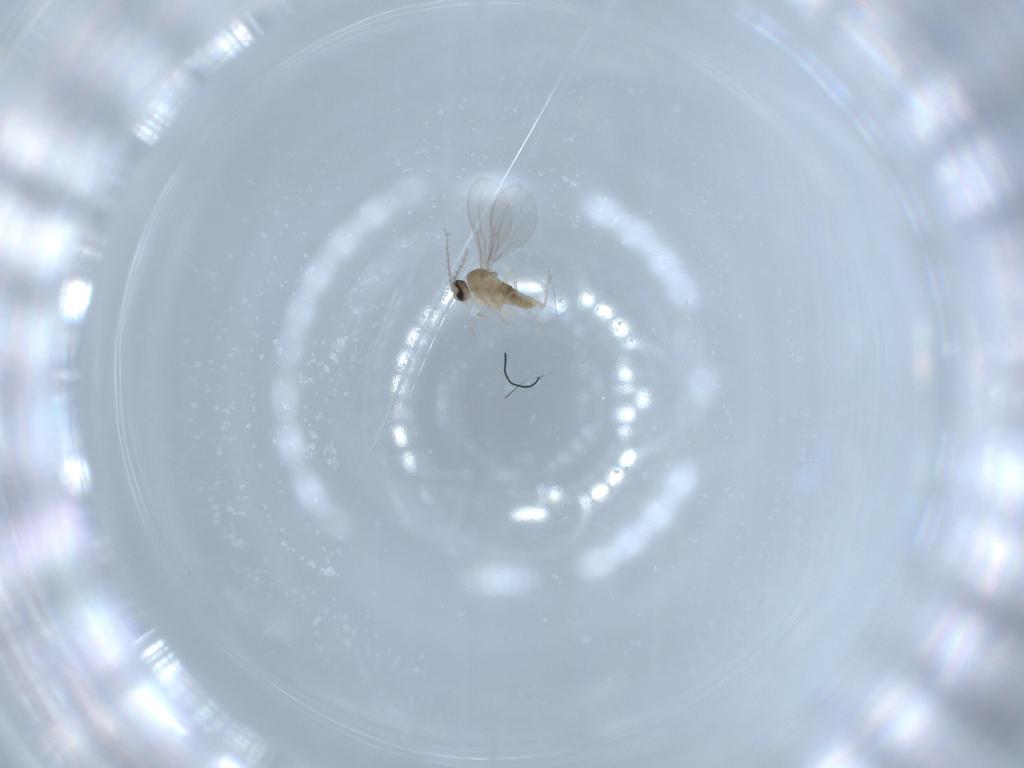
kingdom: Animalia
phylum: Arthropoda
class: Insecta
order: Diptera
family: Cecidomyiidae
